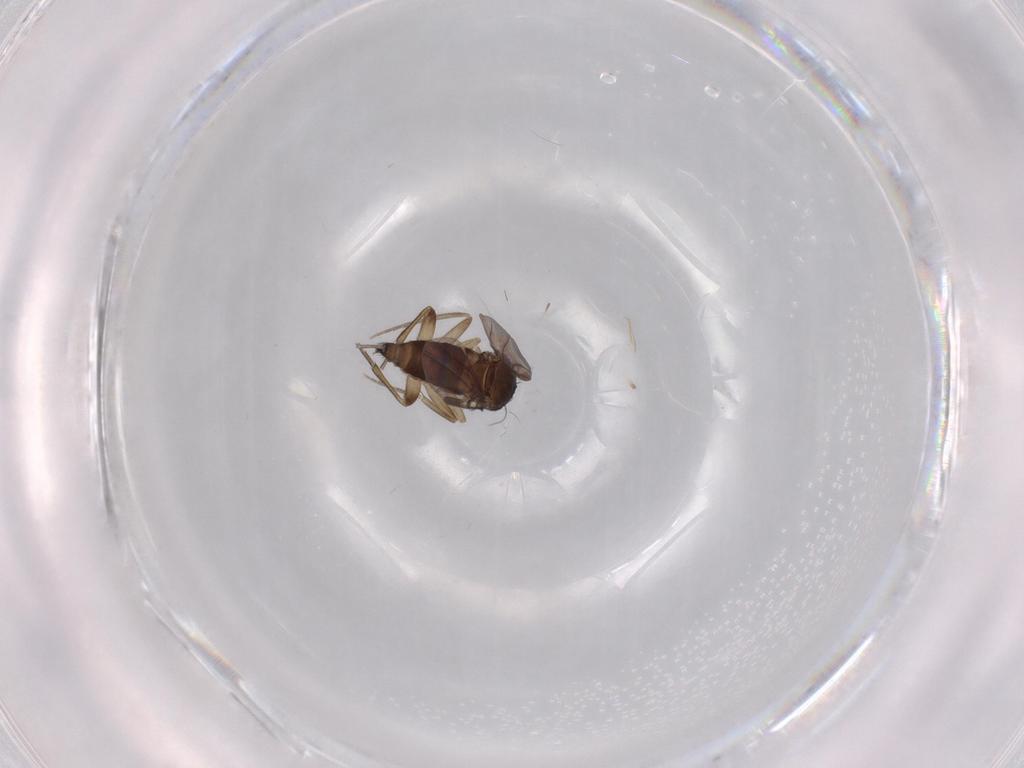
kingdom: Animalia
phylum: Arthropoda
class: Insecta
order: Diptera
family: Phoridae
